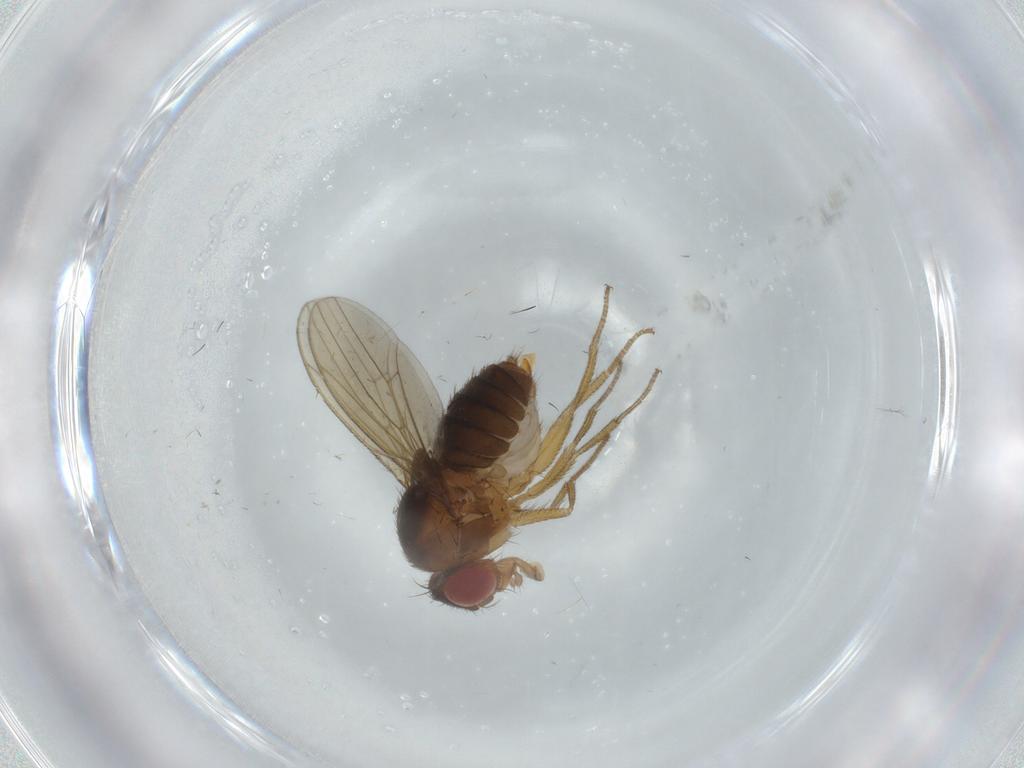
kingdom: Animalia
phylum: Arthropoda
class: Insecta
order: Diptera
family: Drosophilidae
